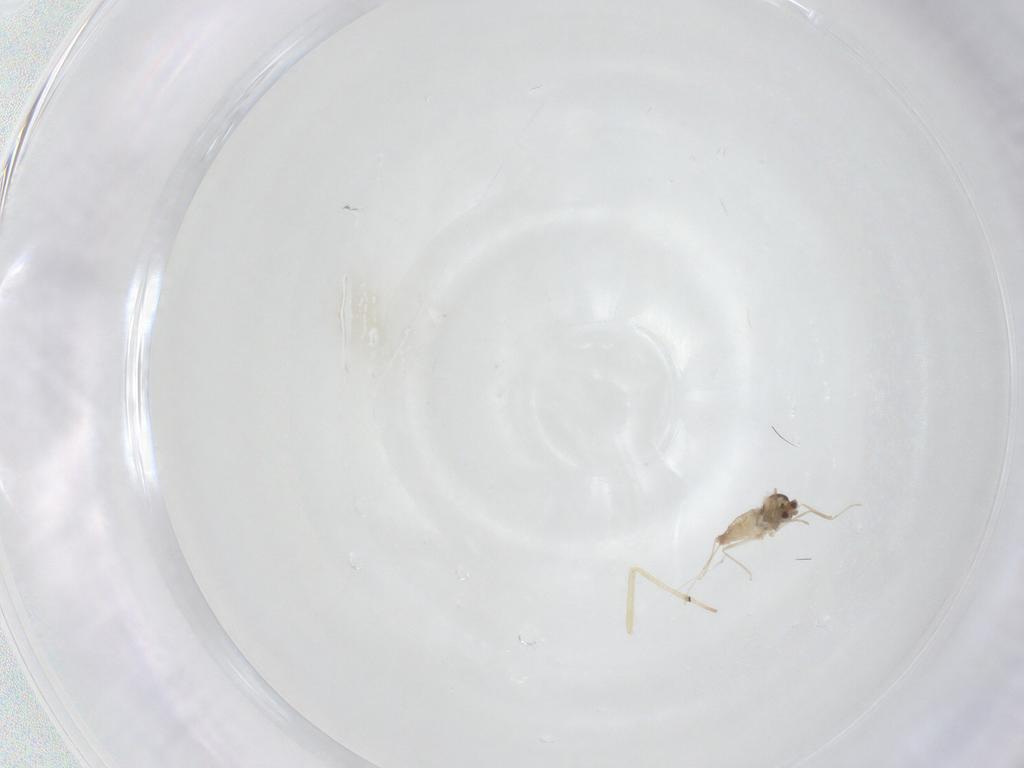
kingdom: Animalia
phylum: Arthropoda
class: Insecta
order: Diptera
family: Cecidomyiidae
